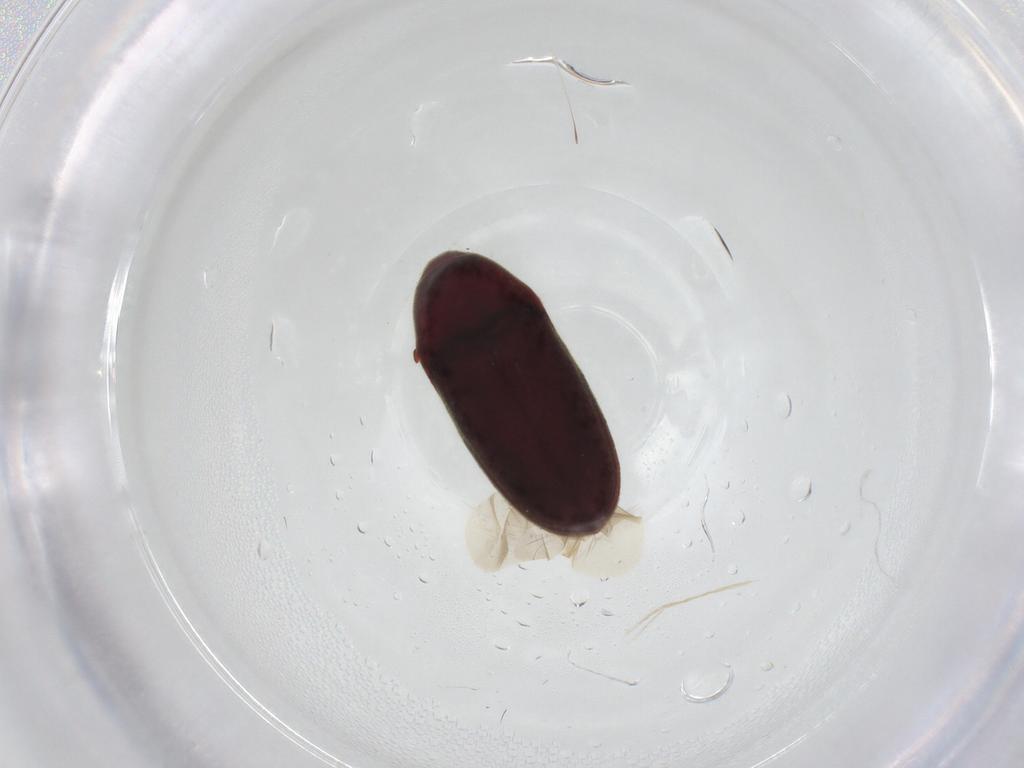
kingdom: Animalia
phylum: Arthropoda
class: Insecta
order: Coleoptera
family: Throscidae
